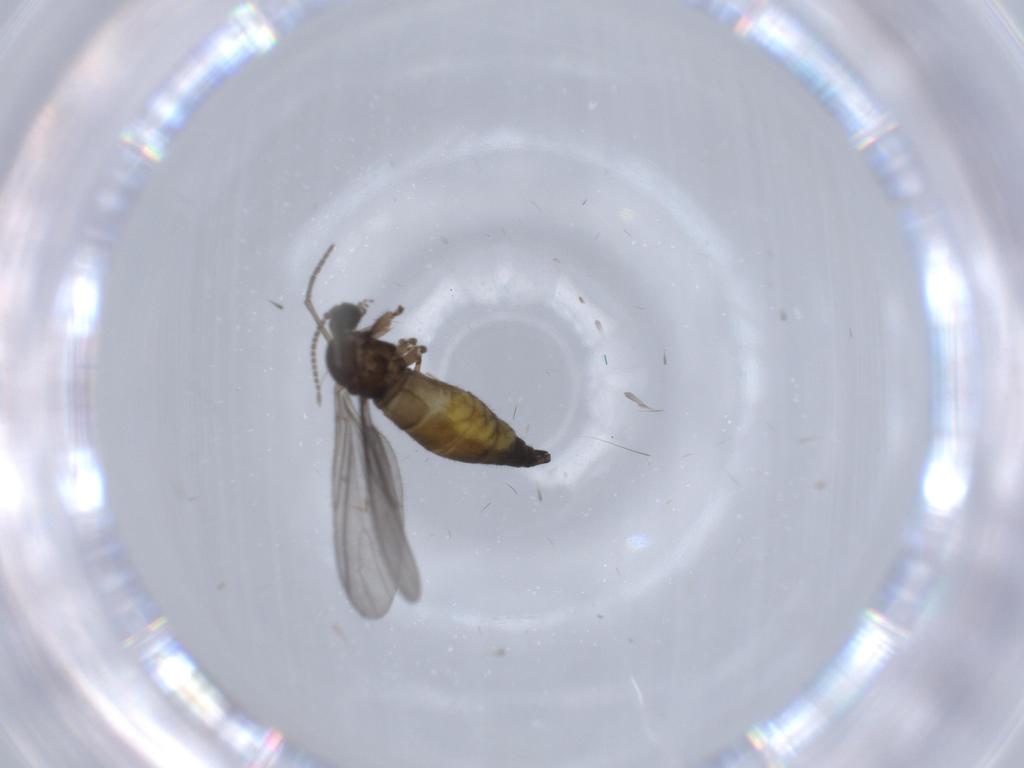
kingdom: Animalia
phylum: Arthropoda
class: Insecta
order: Diptera
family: Sciaridae
